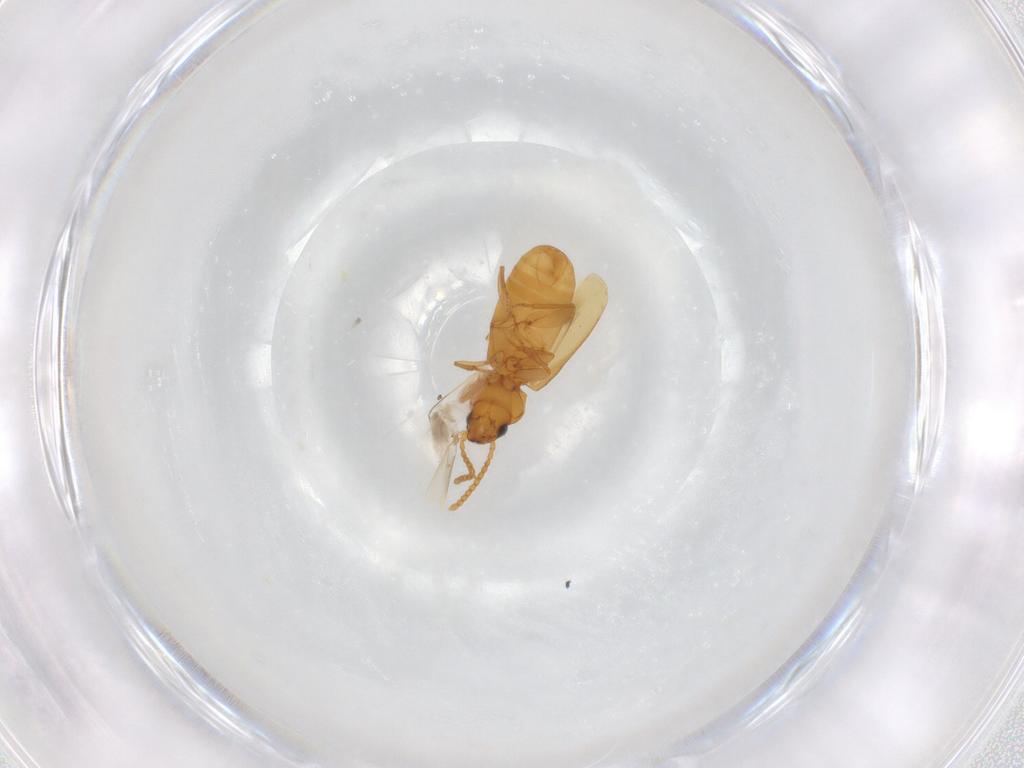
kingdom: Animalia
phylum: Arthropoda
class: Insecta
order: Coleoptera
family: Carabidae
